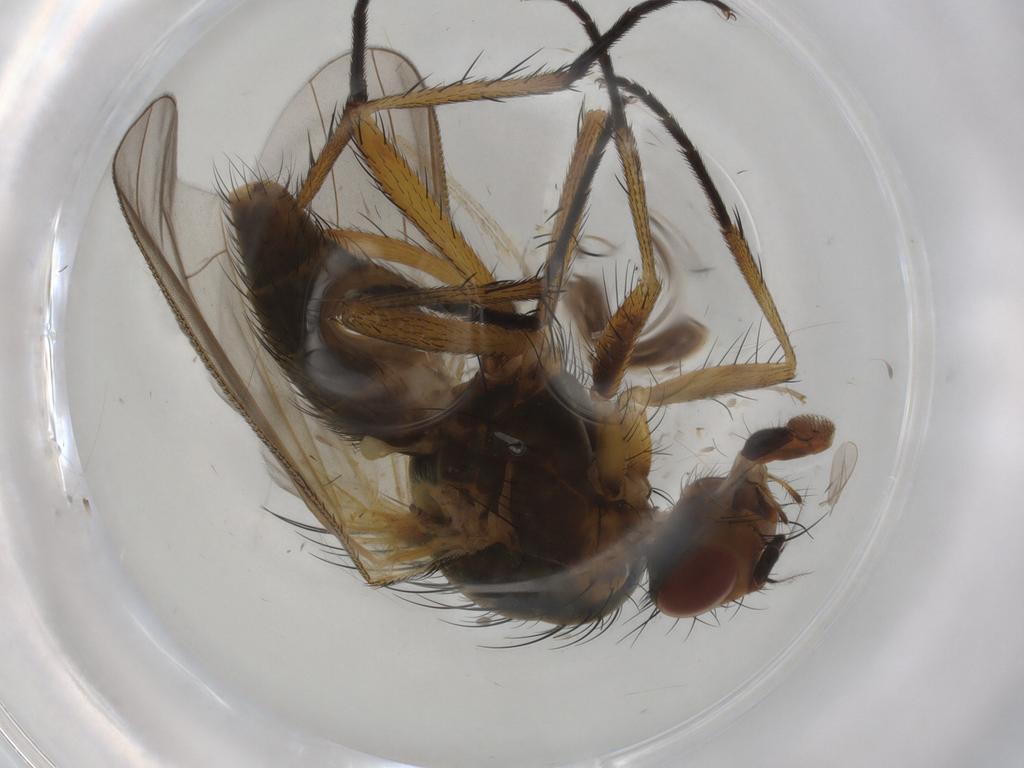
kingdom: Animalia
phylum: Arthropoda
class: Insecta
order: Diptera
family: Anthomyiidae
